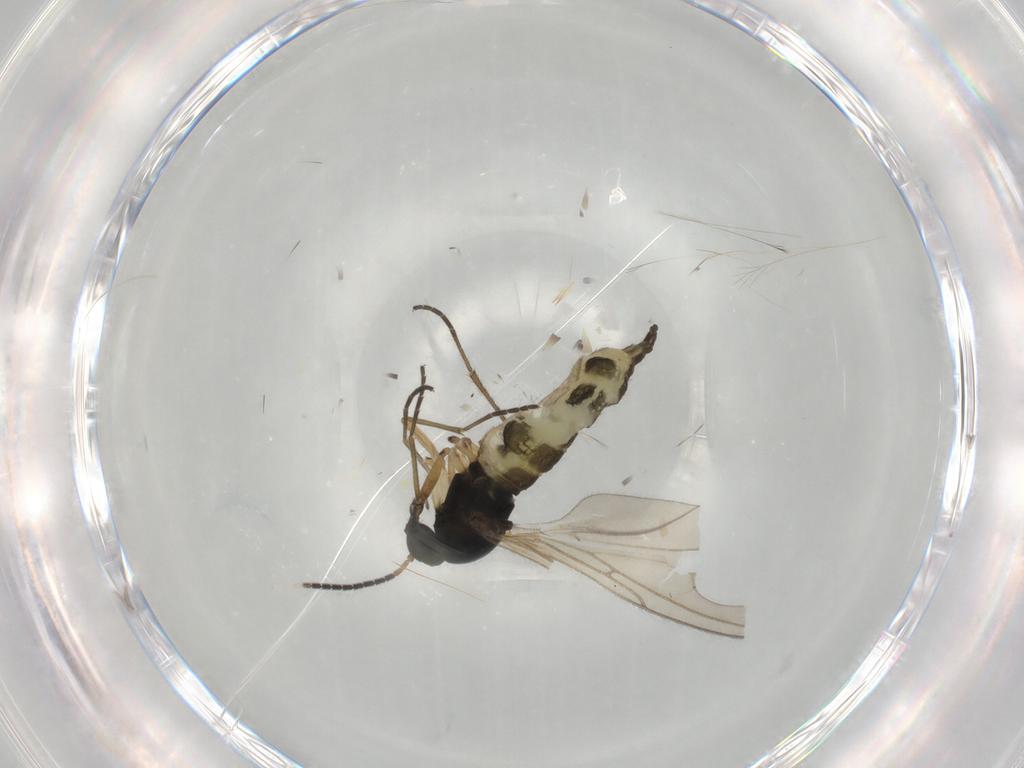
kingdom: Animalia
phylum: Arthropoda
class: Insecta
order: Diptera
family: Sciaridae
